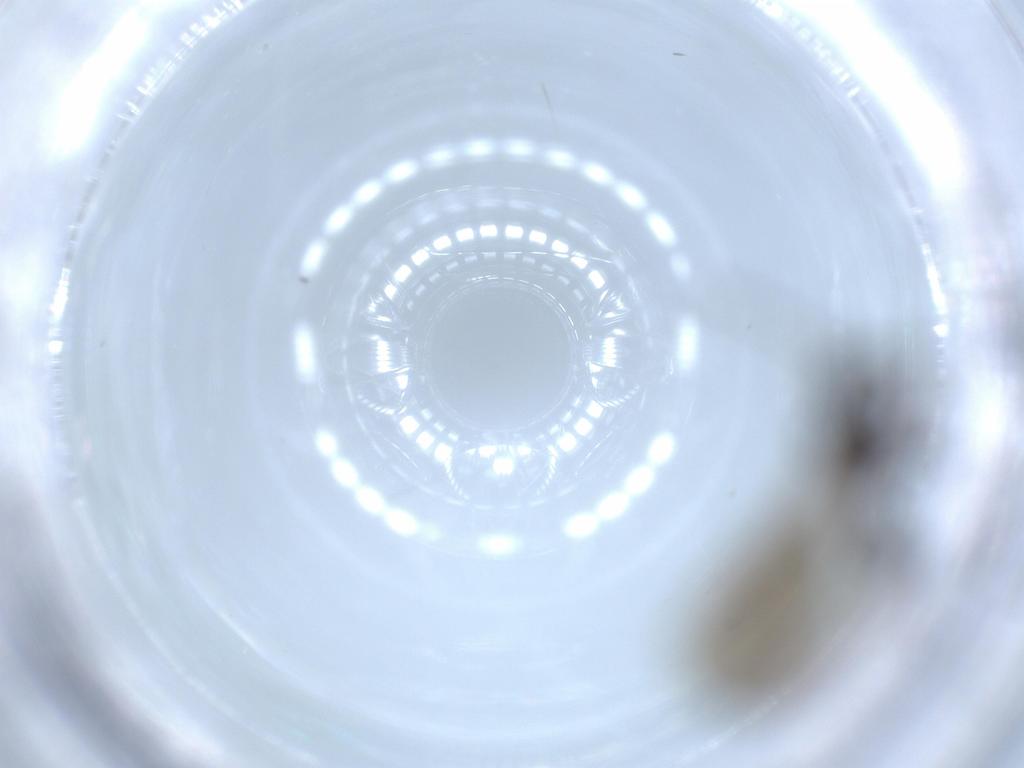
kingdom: Animalia
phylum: Arthropoda
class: Insecta
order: Hymenoptera
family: Formicidae
